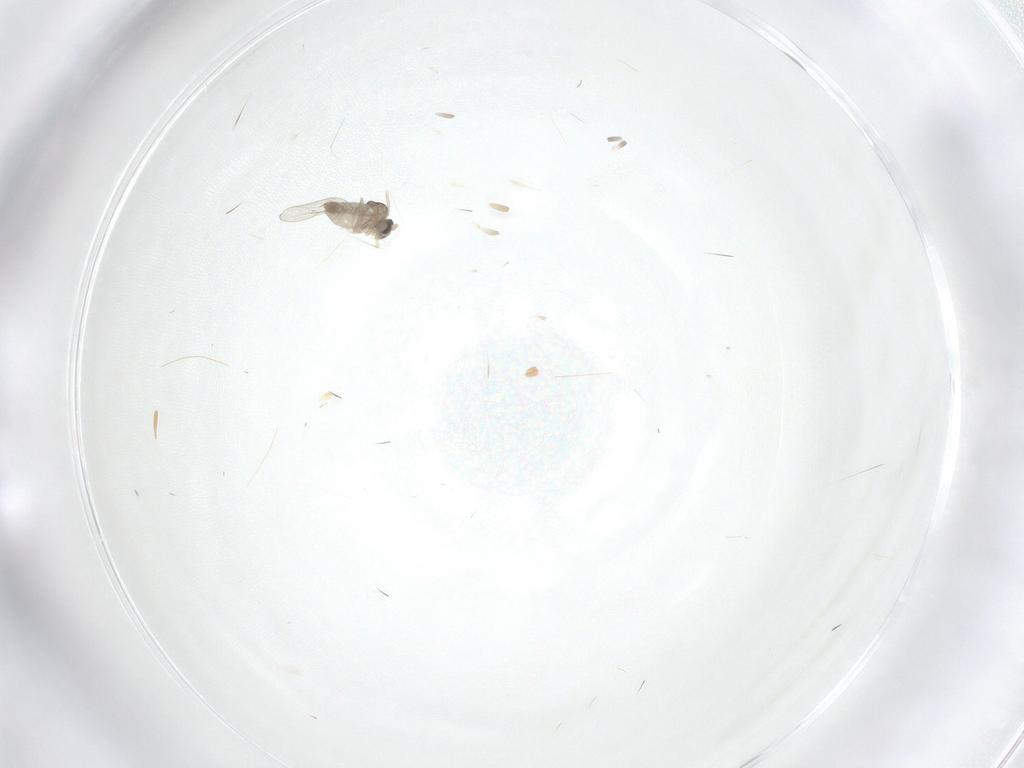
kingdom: Animalia
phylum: Arthropoda
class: Insecta
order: Diptera
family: Cecidomyiidae
